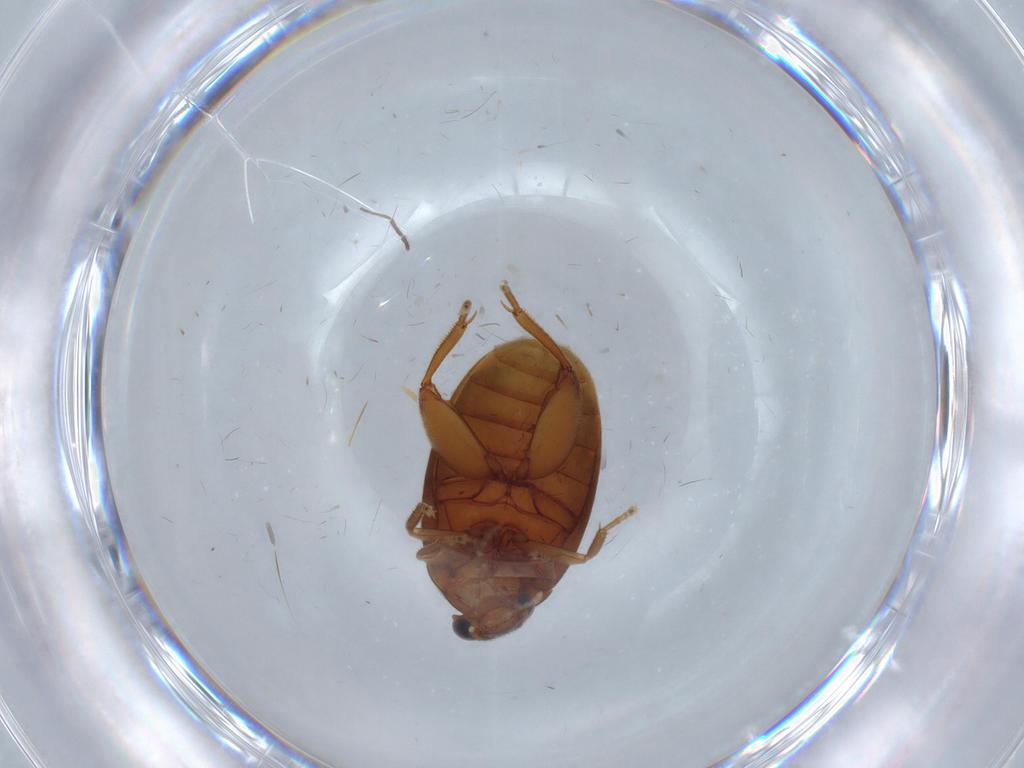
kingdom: Animalia
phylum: Arthropoda
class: Insecta
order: Coleoptera
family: Scirtidae
